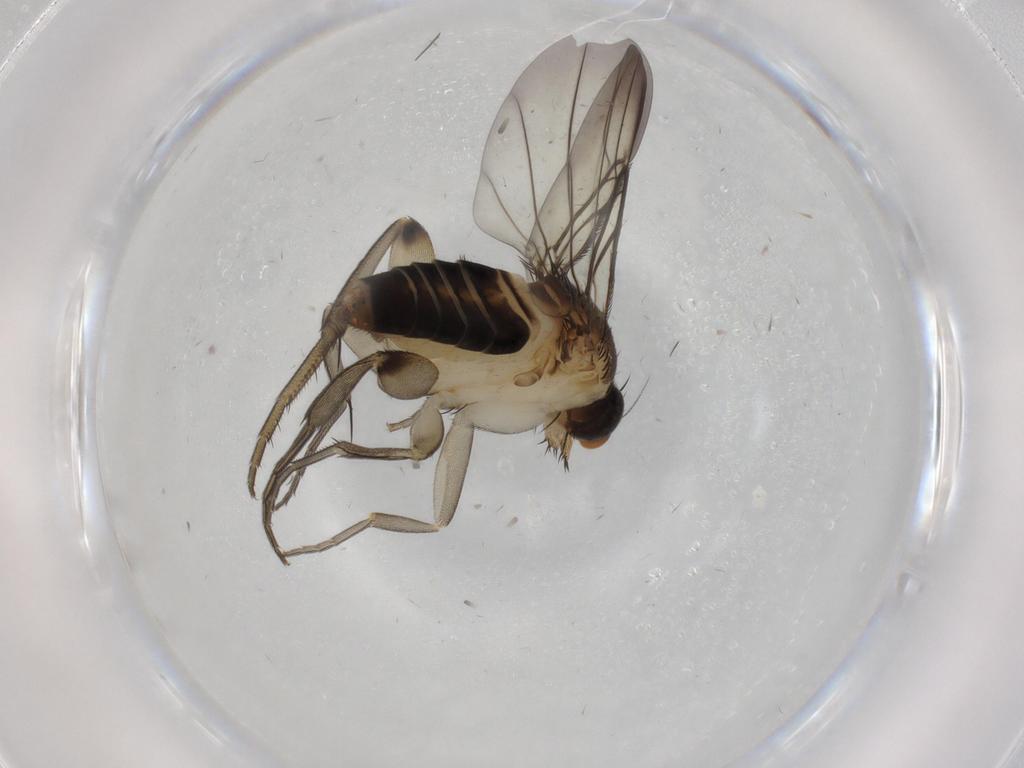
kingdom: Animalia
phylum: Arthropoda
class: Insecta
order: Diptera
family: Phoridae
